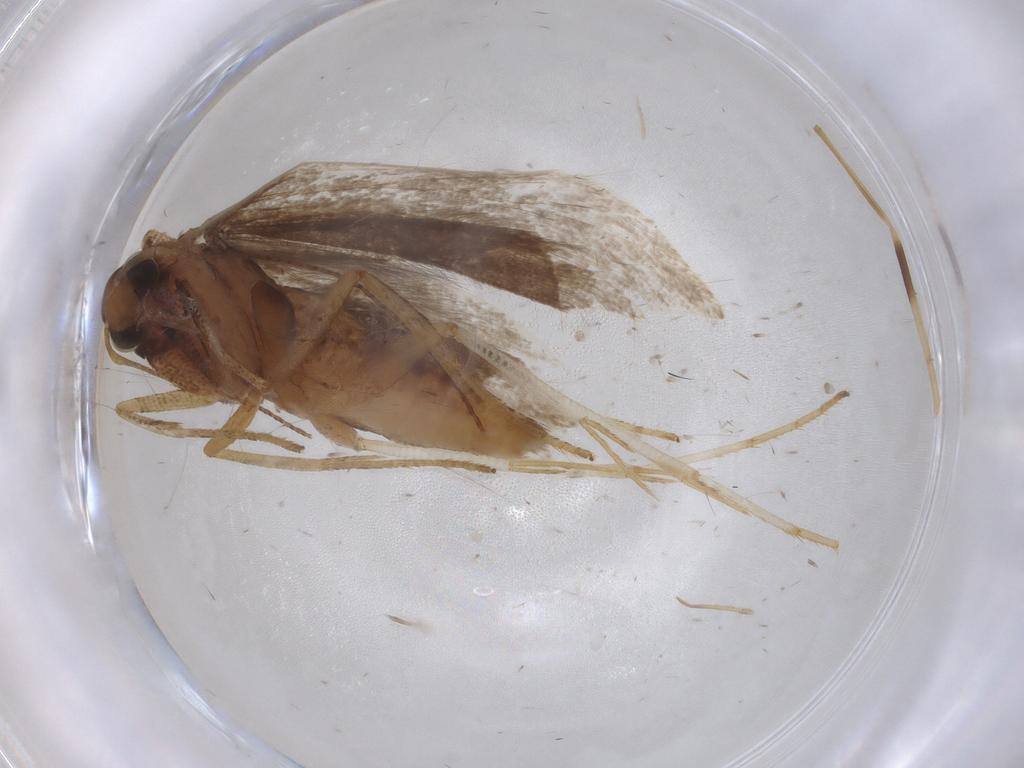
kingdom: Animalia
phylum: Arthropoda
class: Insecta
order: Lepidoptera
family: Gelechiidae
